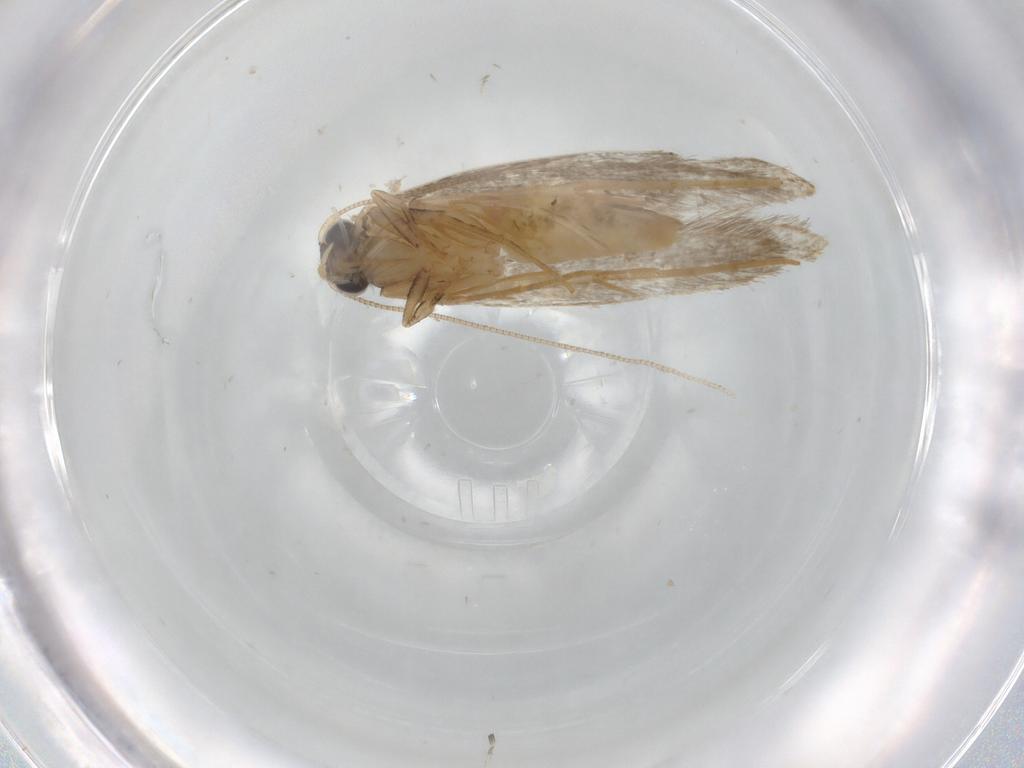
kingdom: Animalia
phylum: Arthropoda
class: Insecta
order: Lepidoptera
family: Tineidae
